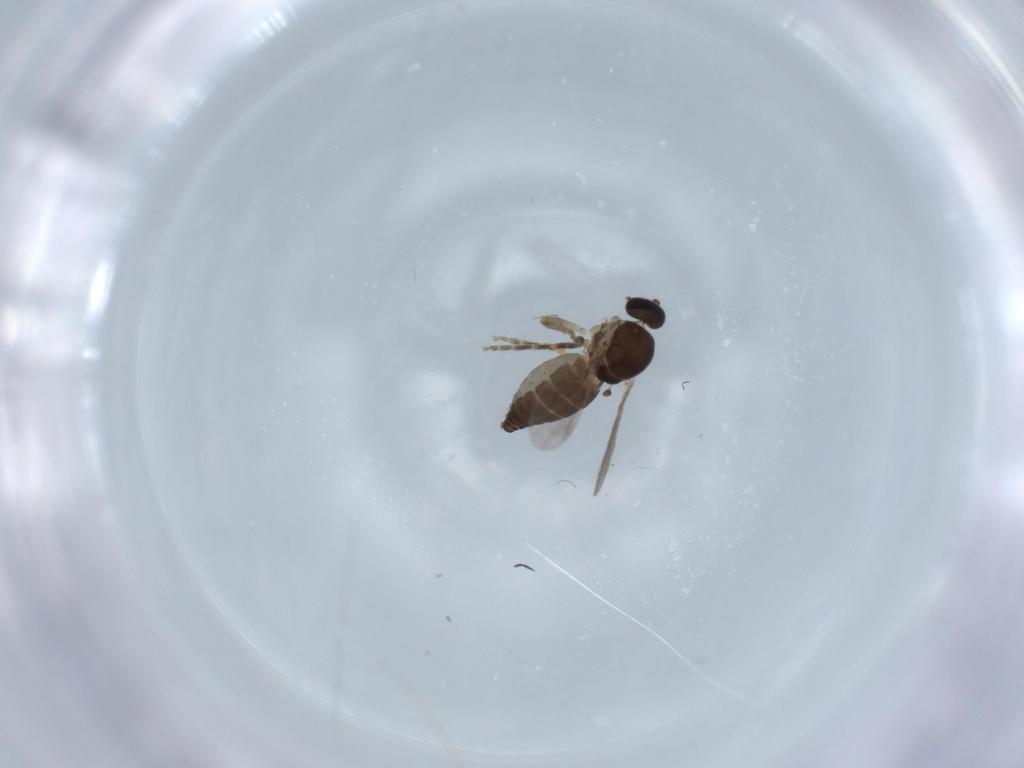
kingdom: Animalia
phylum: Arthropoda
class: Insecta
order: Diptera
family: Ceratopogonidae
